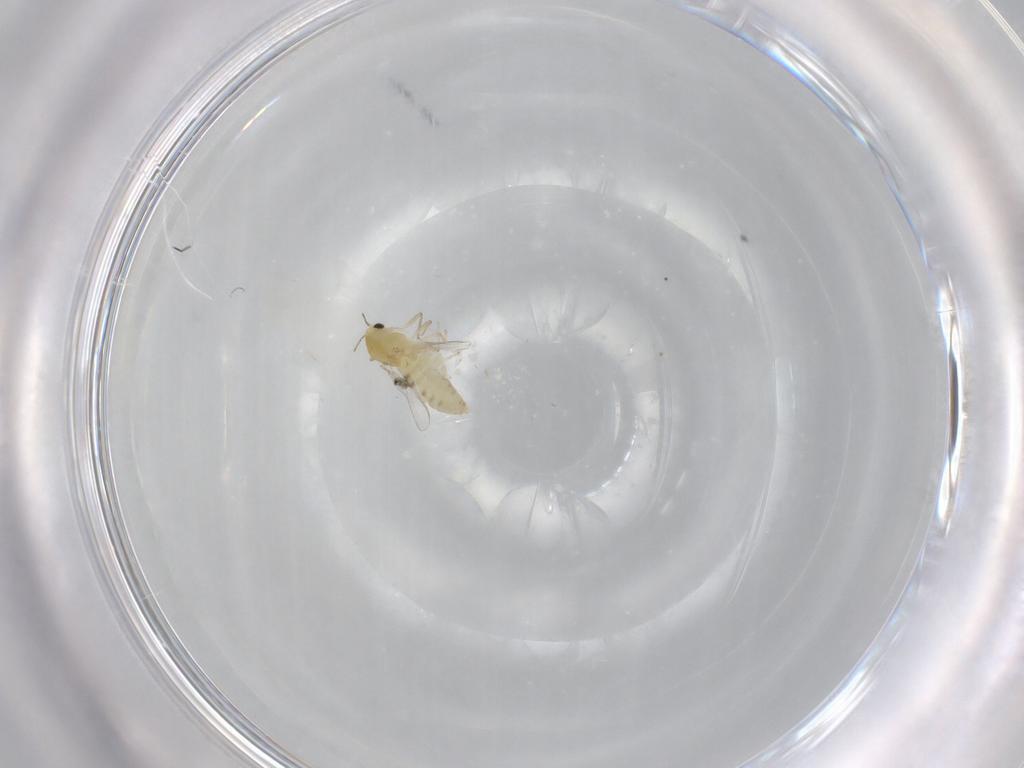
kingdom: Animalia
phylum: Arthropoda
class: Insecta
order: Diptera
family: Chironomidae
